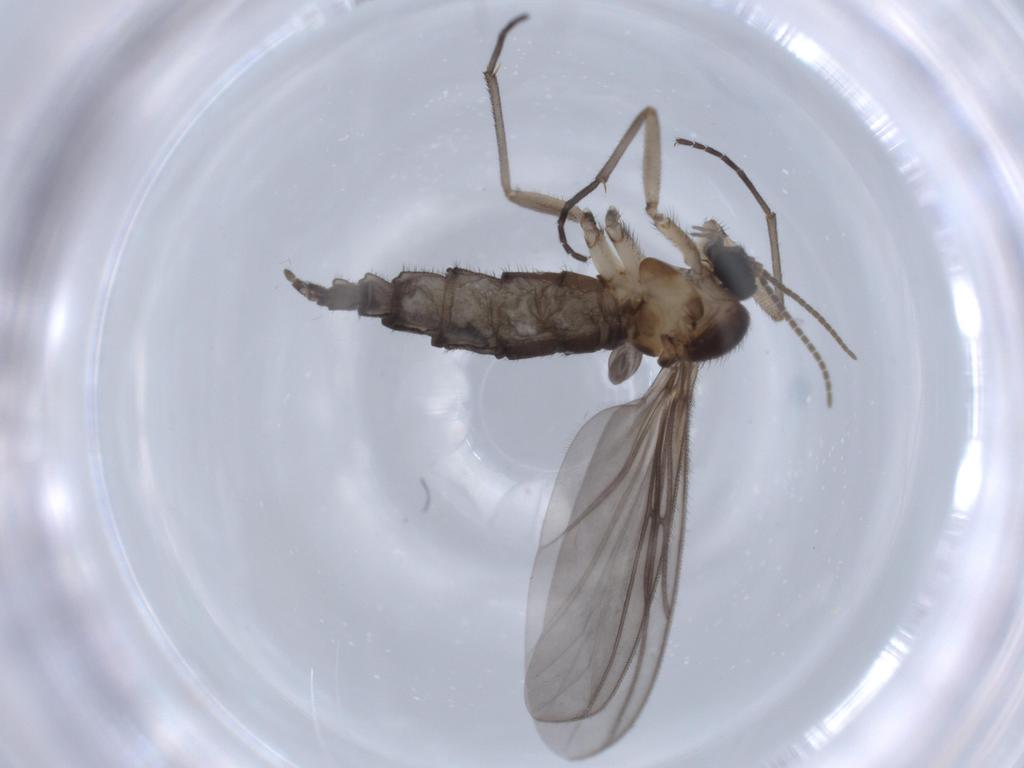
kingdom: Animalia
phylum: Arthropoda
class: Insecta
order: Diptera
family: Sciaridae
